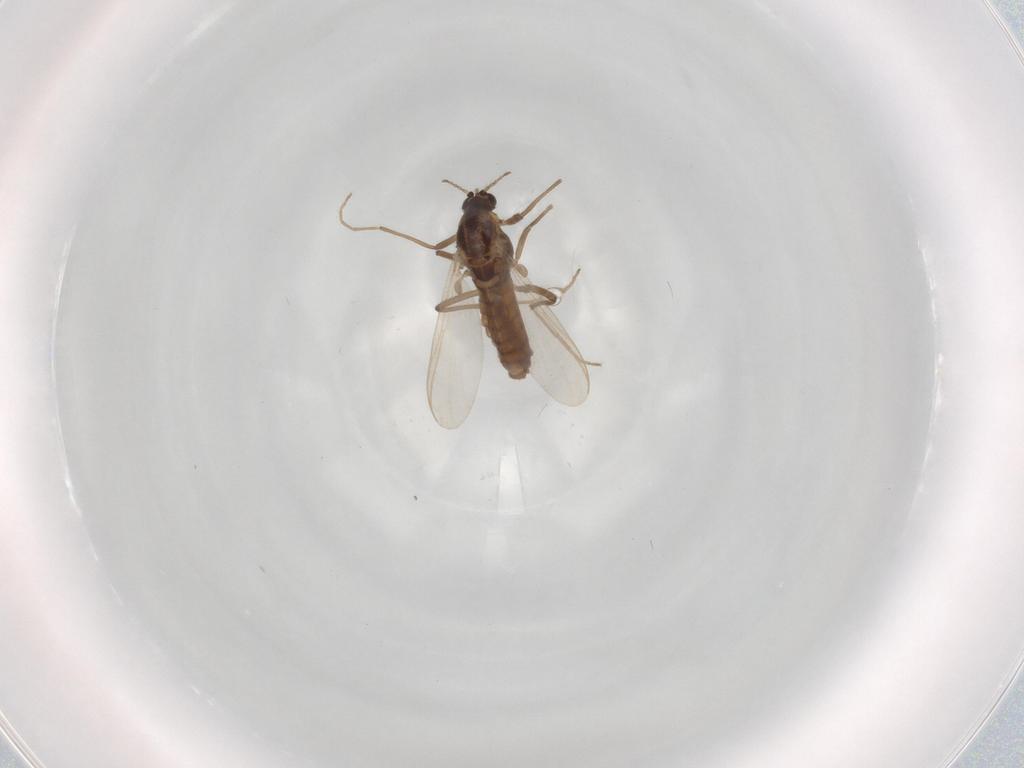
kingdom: Animalia
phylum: Arthropoda
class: Insecta
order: Diptera
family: Chironomidae
